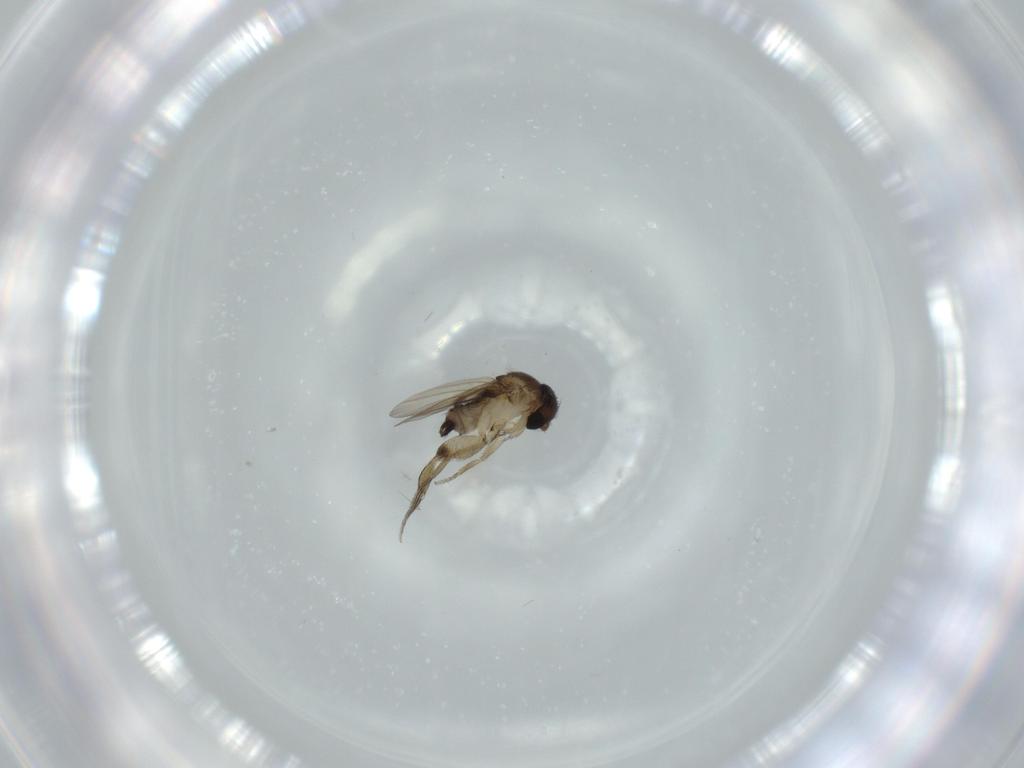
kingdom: Animalia
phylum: Arthropoda
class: Insecta
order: Diptera
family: Phoridae
